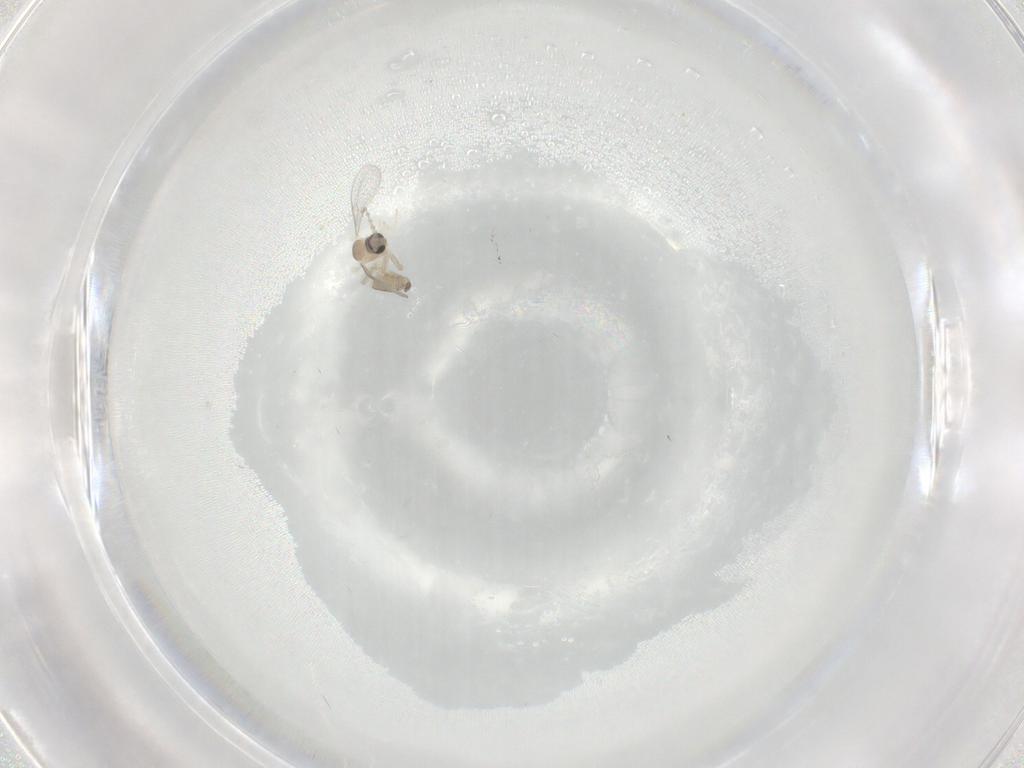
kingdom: Animalia
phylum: Arthropoda
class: Insecta
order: Diptera
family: Cecidomyiidae
